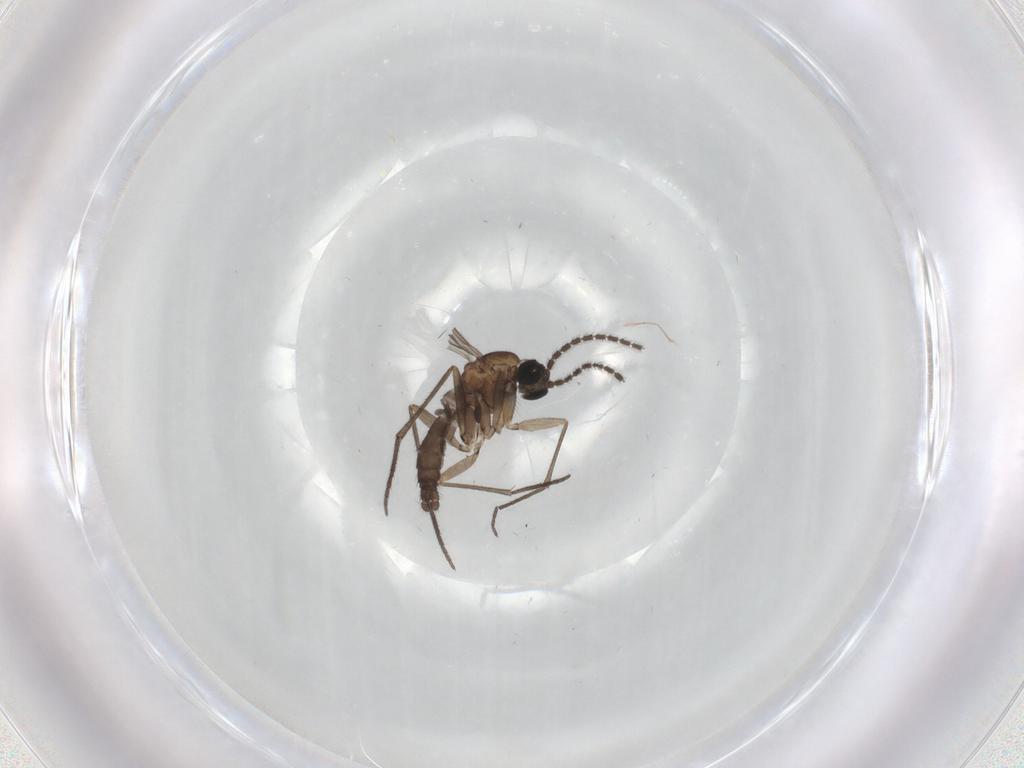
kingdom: Animalia
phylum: Arthropoda
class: Insecta
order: Diptera
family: Sciaridae
